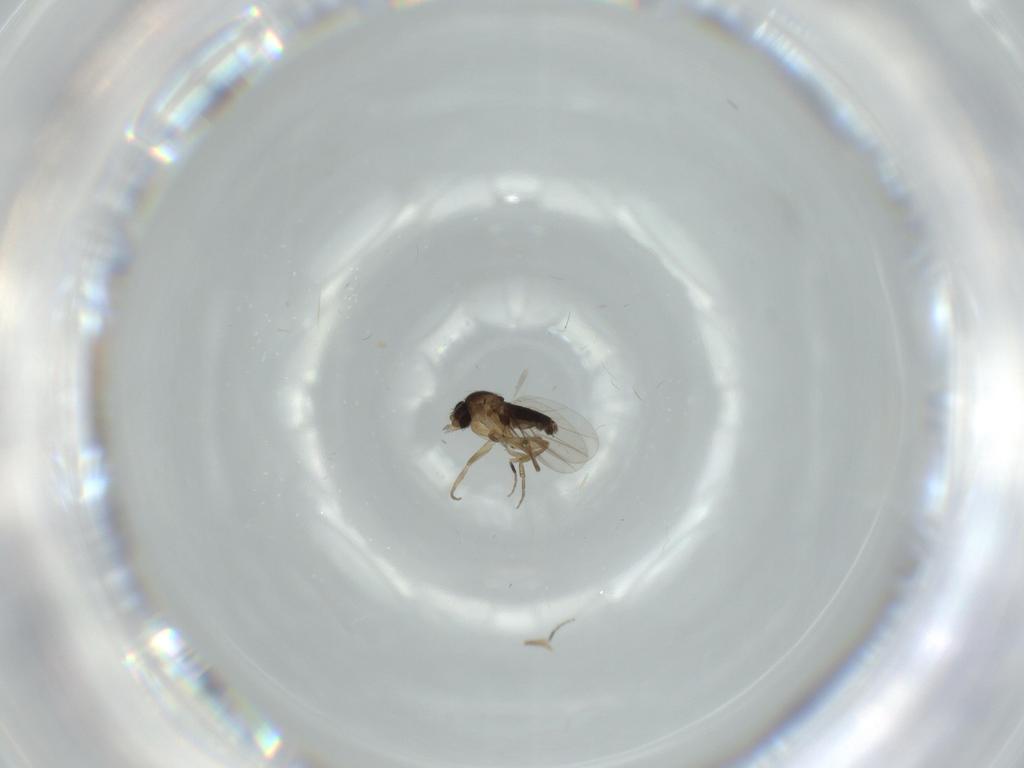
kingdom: Animalia
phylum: Arthropoda
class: Insecta
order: Diptera
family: Phoridae
